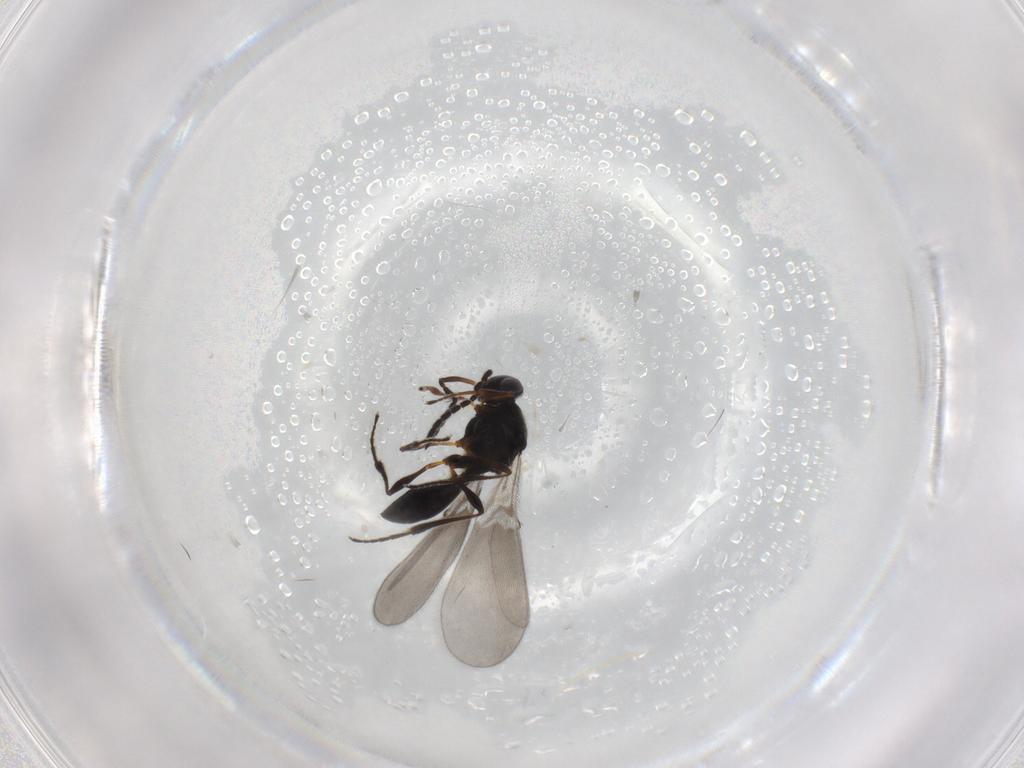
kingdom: Animalia
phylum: Arthropoda
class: Insecta
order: Hymenoptera
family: Platygastridae
